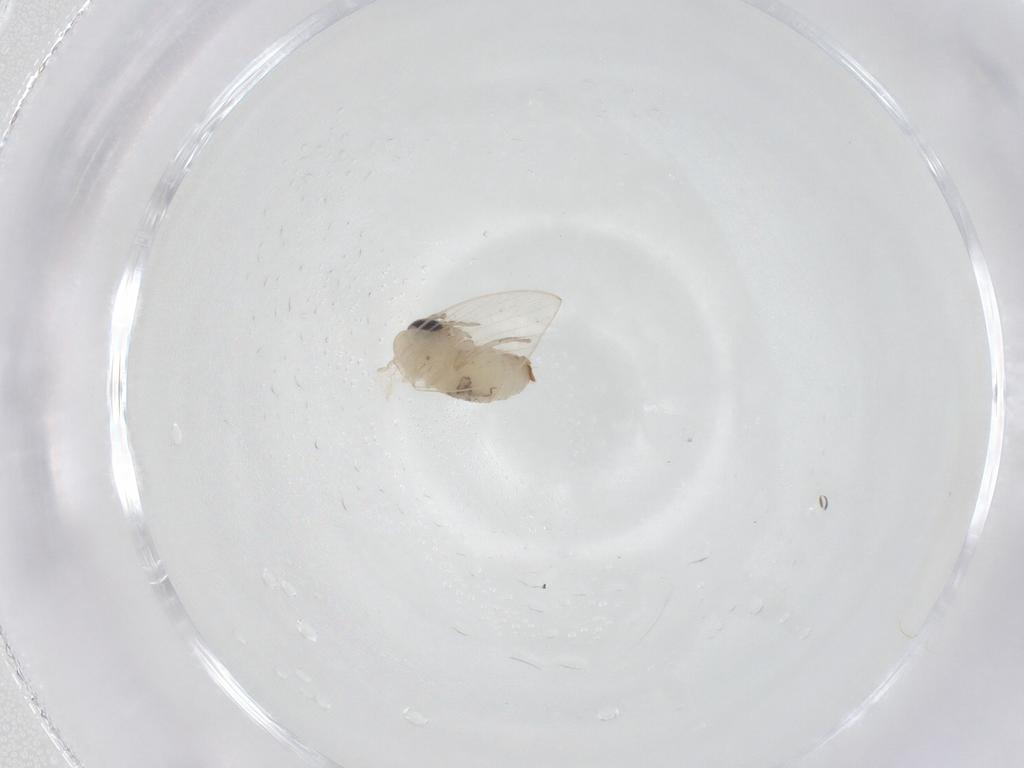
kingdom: Animalia
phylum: Arthropoda
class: Insecta
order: Diptera
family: Psychodidae
